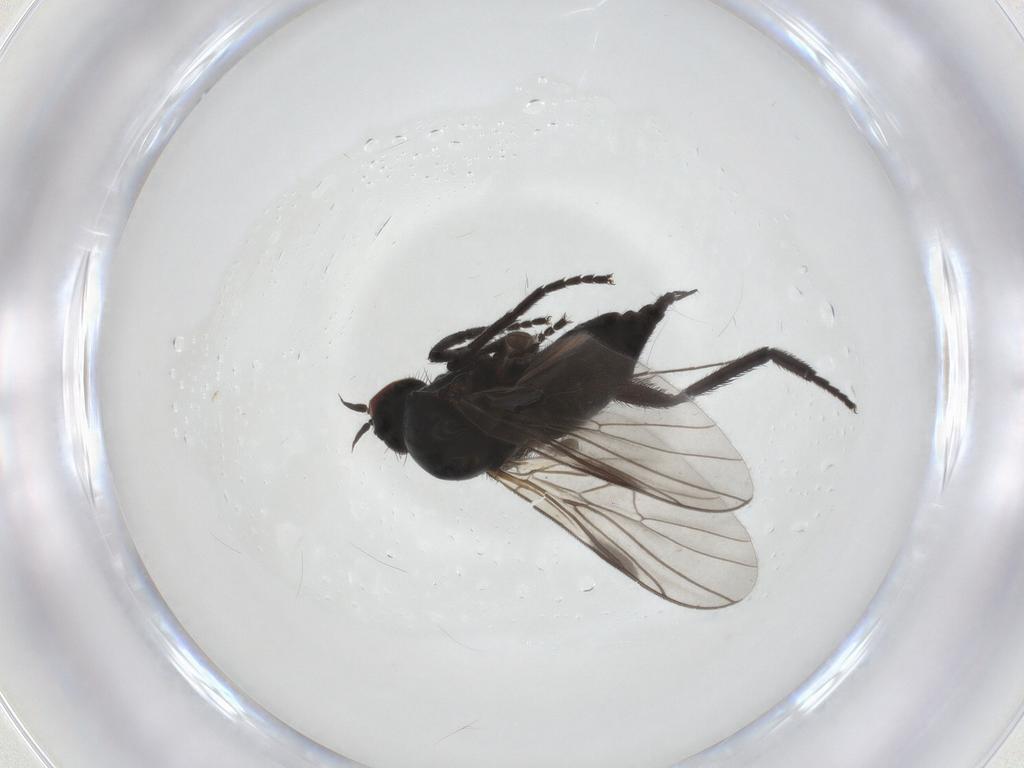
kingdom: Animalia
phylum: Arthropoda
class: Insecta
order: Diptera
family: Empididae
